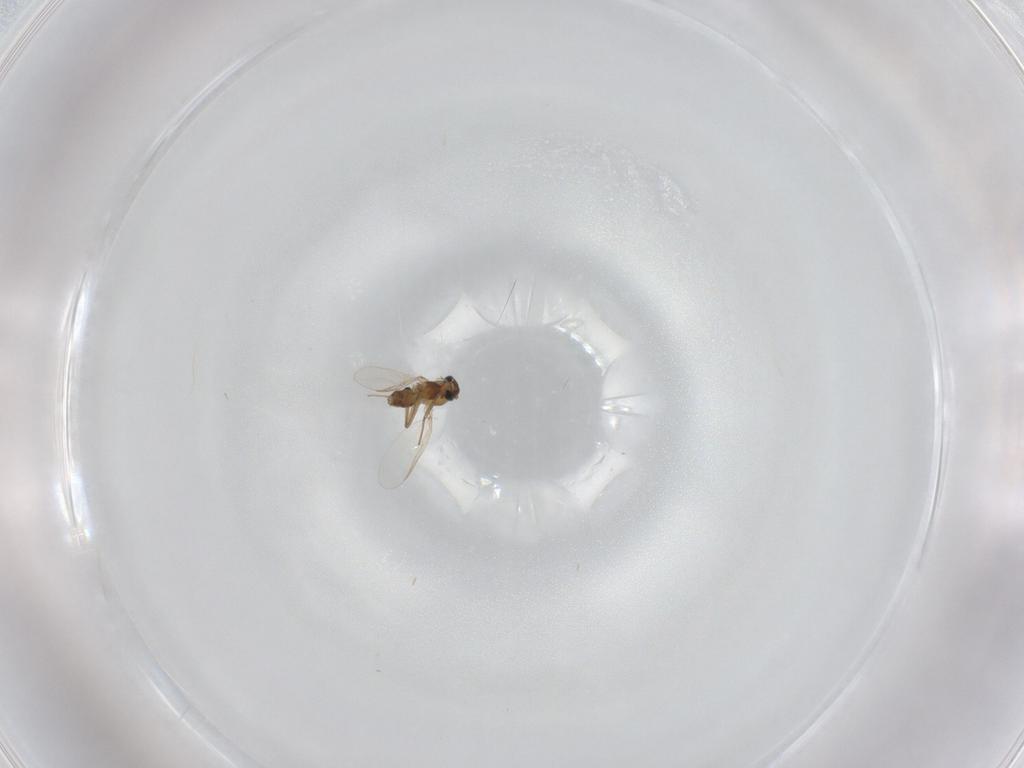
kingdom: Animalia
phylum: Arthropoda
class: Insecta
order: Diptera
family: Chironomidae
